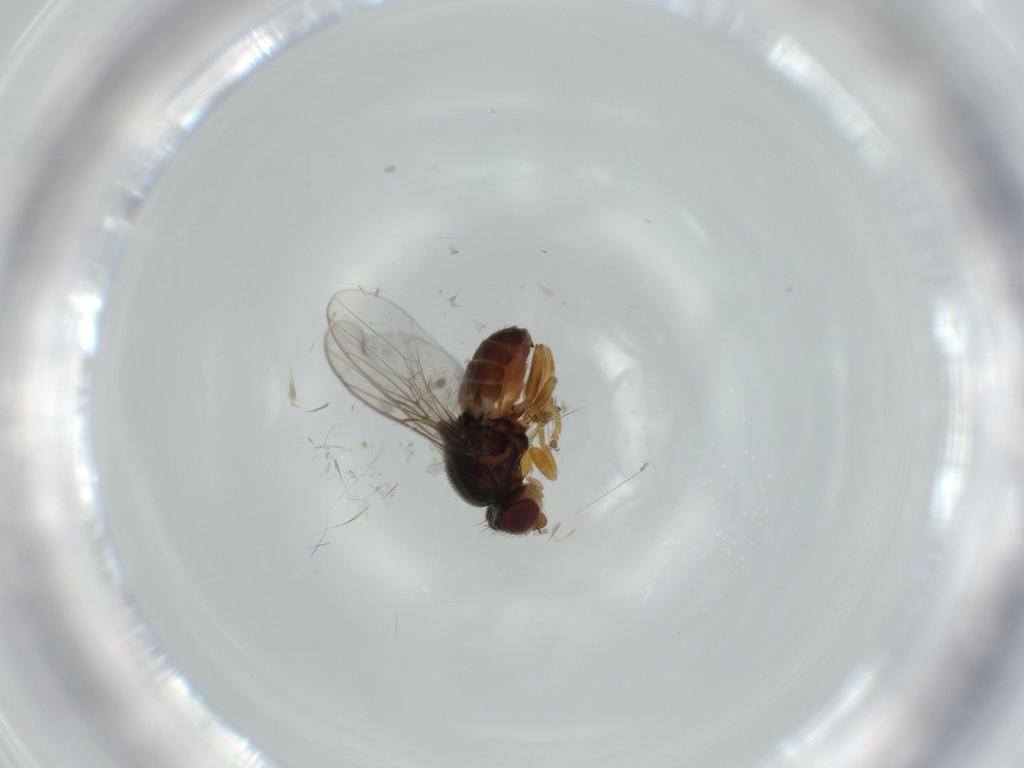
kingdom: Animalia
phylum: Arthropoda
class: Insecta
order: Diptera
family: Chloropidae
